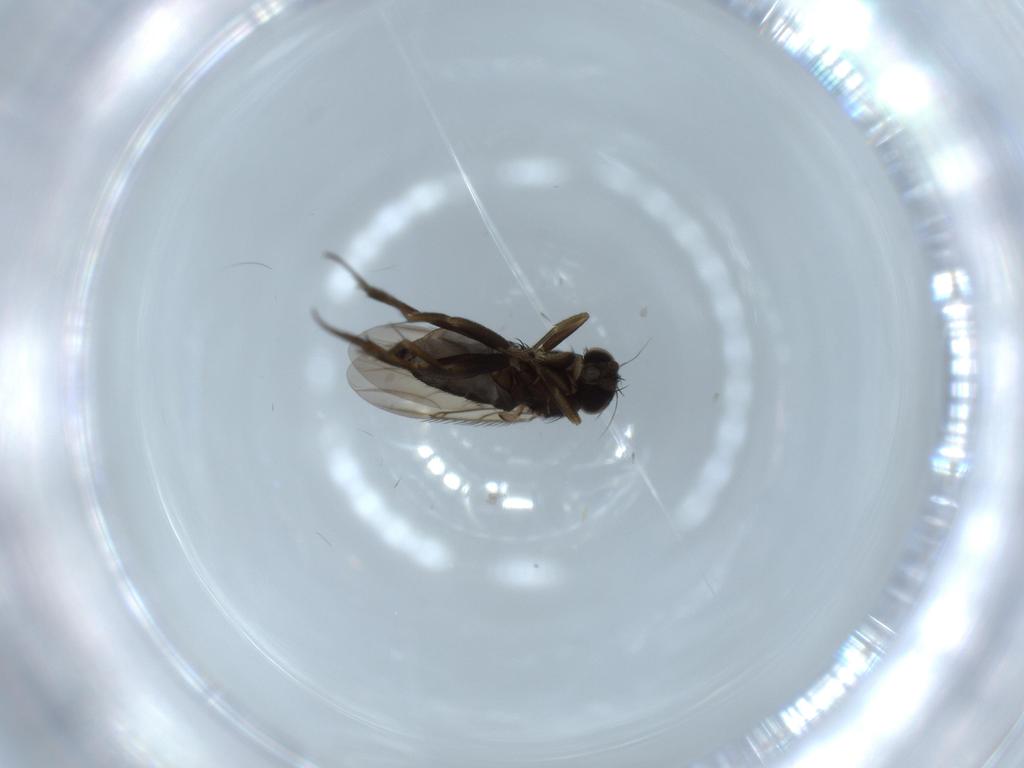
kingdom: Animalia
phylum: Arthropoda
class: Insecta
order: Diptera
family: Phoridae
